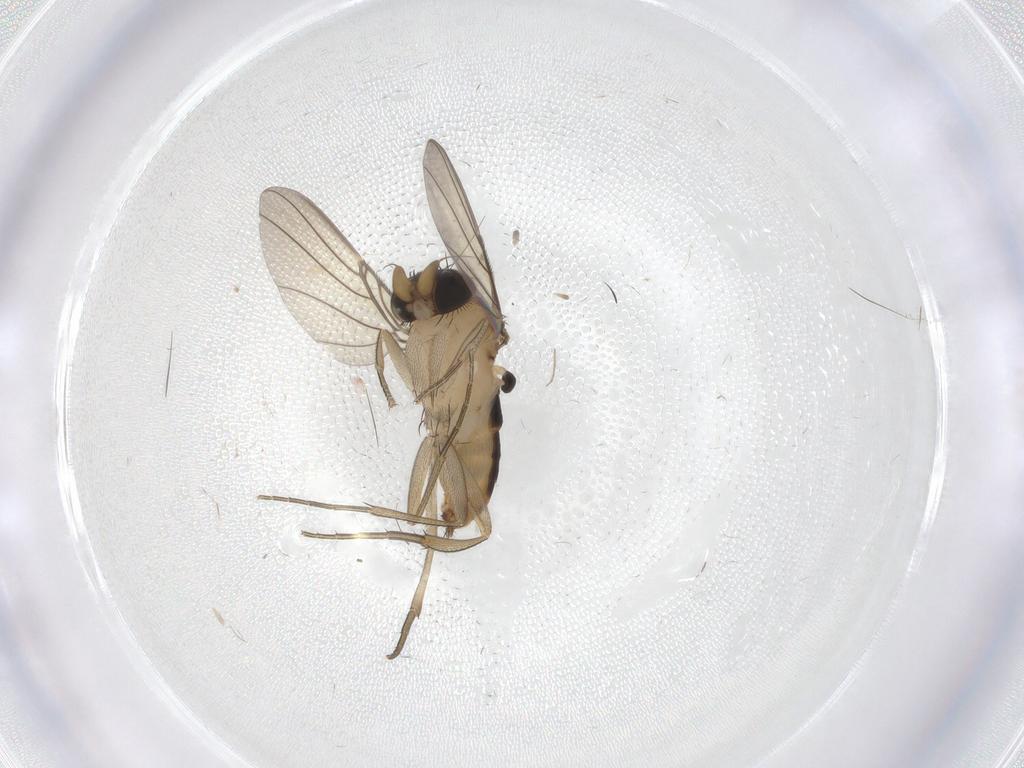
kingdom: Animalia
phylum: Arthropoda
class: Insecta
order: Diptera
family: Phoridae
